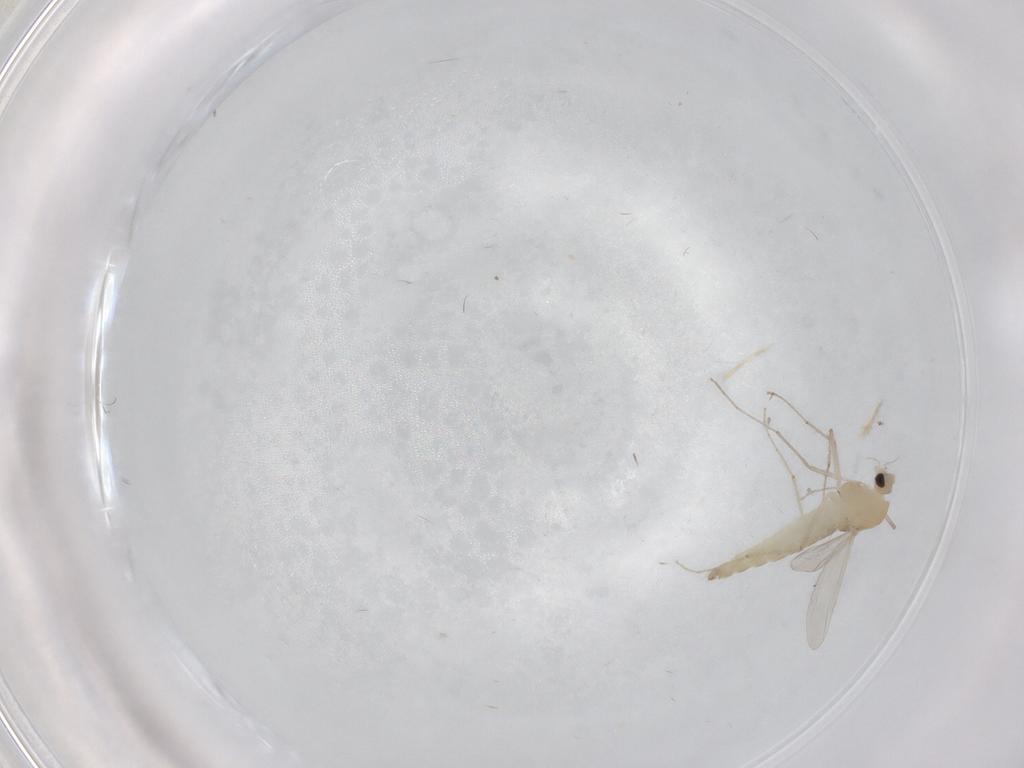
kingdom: Animalia
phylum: Arthropoda
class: Insecta
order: Diptera
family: Chironomidae
